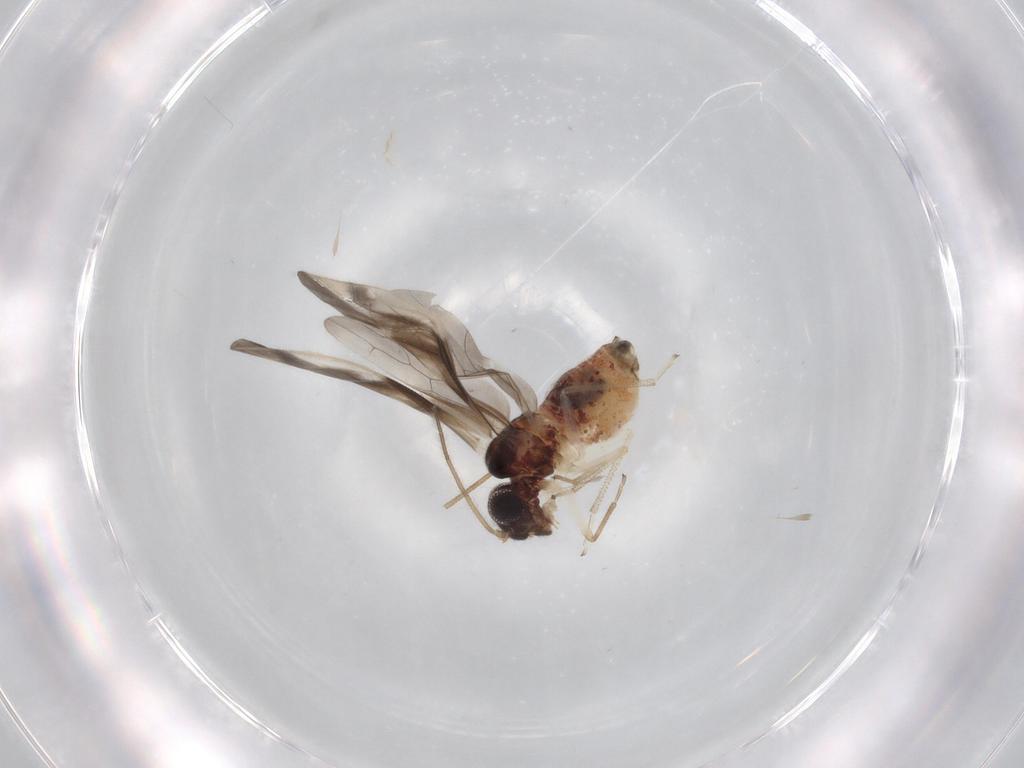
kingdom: Animalia
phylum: Arthropoda
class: Insecta
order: Psocodea
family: Caeciliusidae
